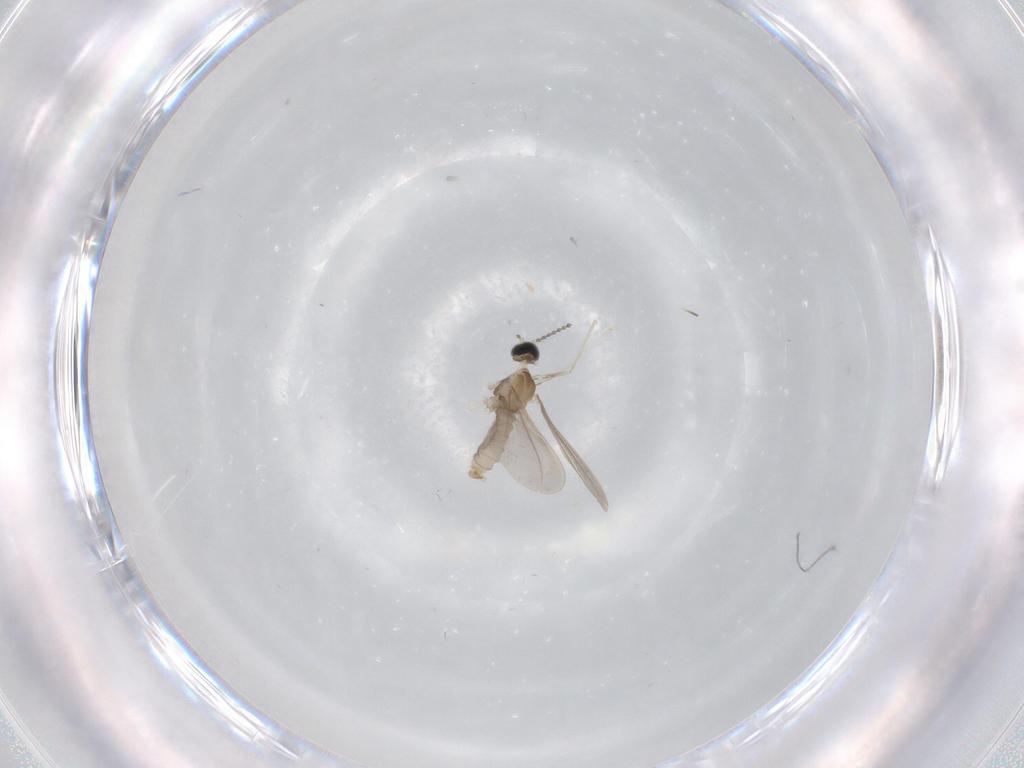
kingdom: Animalia
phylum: Arthropoda
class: Insecta
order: Diptera
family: Cecidomyiidae
